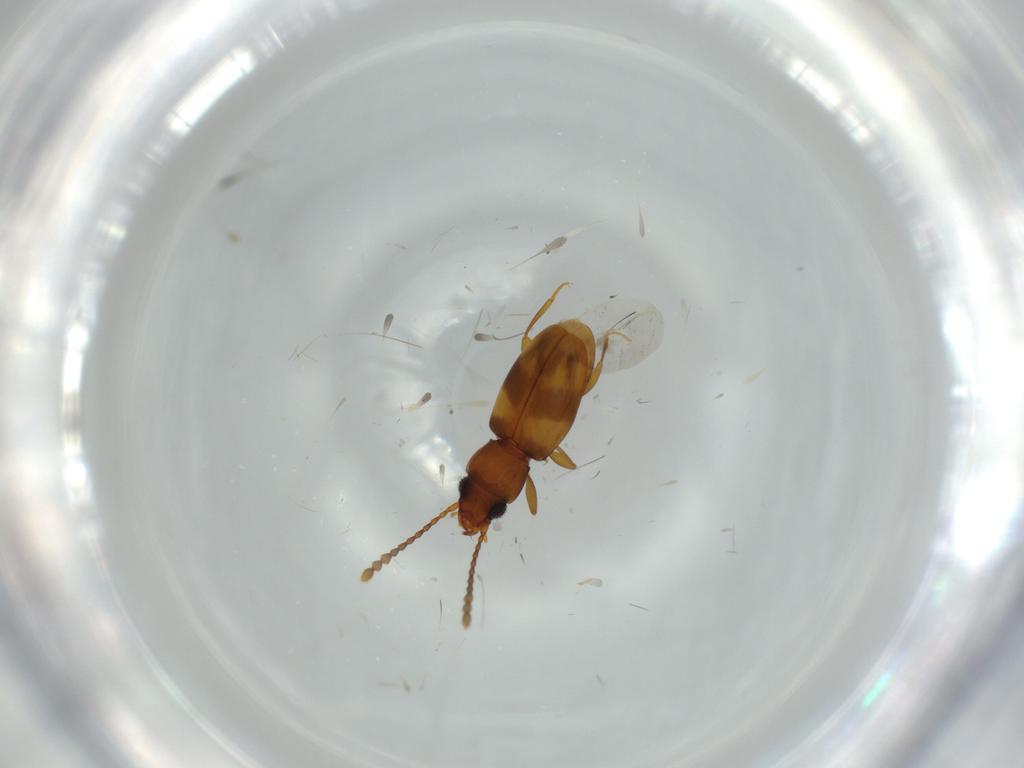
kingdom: Animalia
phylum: Arthropoda
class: Insecta
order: Coleoptera
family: Laemophloeidae
